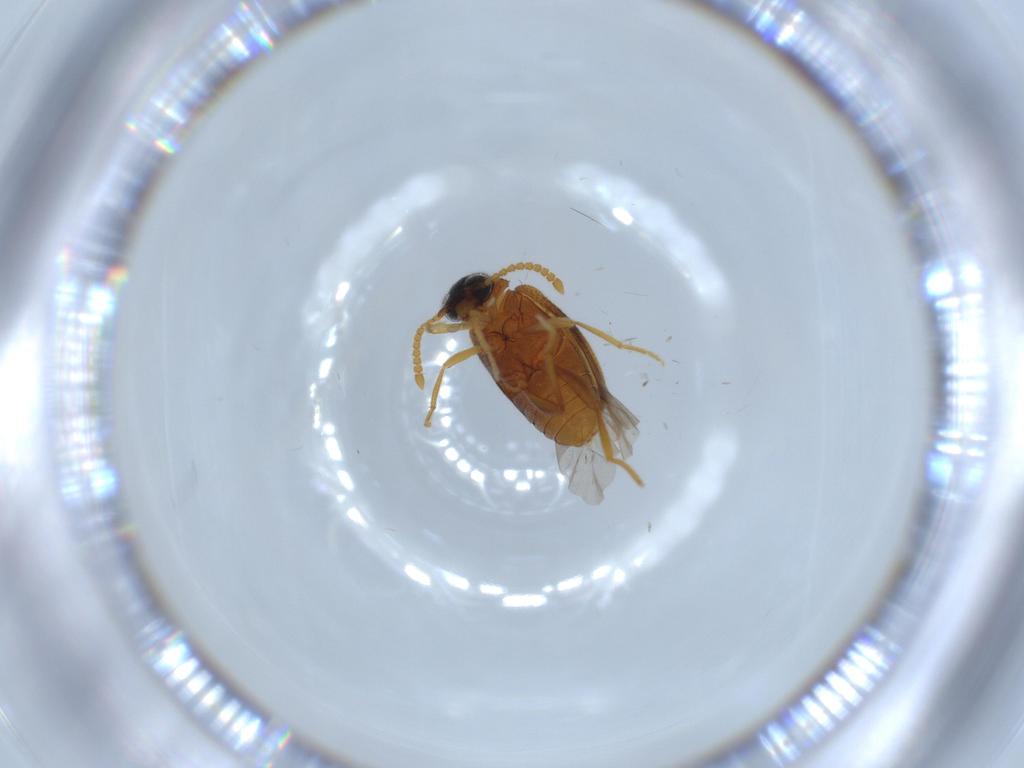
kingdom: Animalia
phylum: Arthropoda
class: Insecta
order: Coleoptera
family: Aderidae
